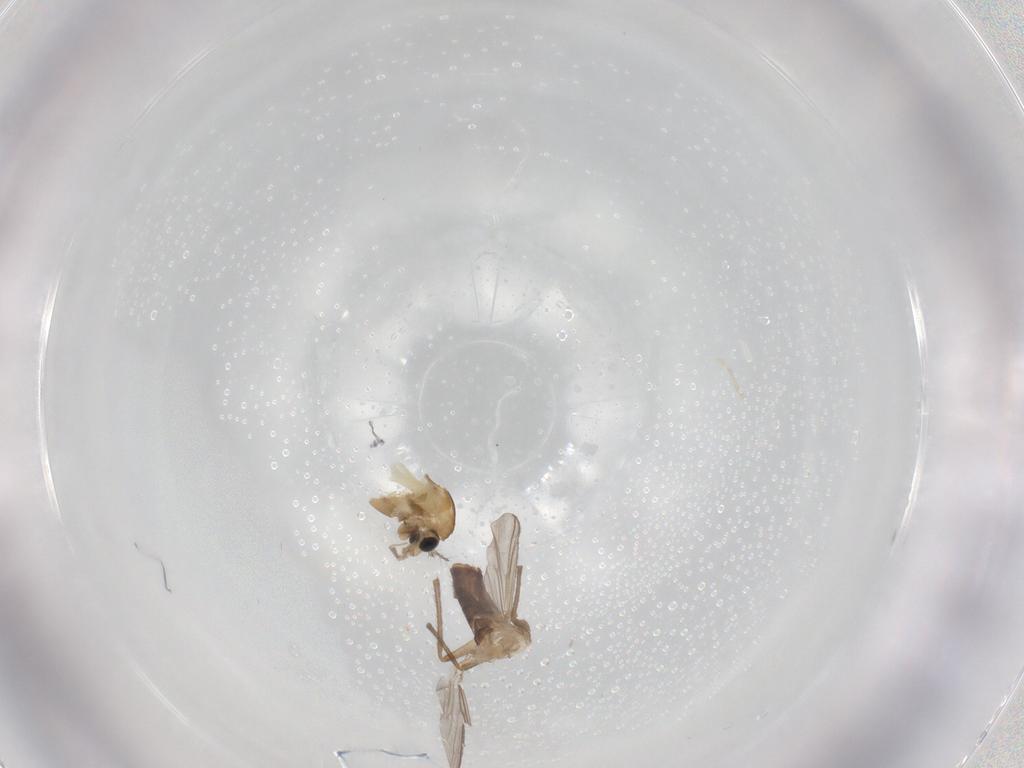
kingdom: Animalia
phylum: Arthropoda
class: Insecta
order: Diptera
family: Chironomidae
